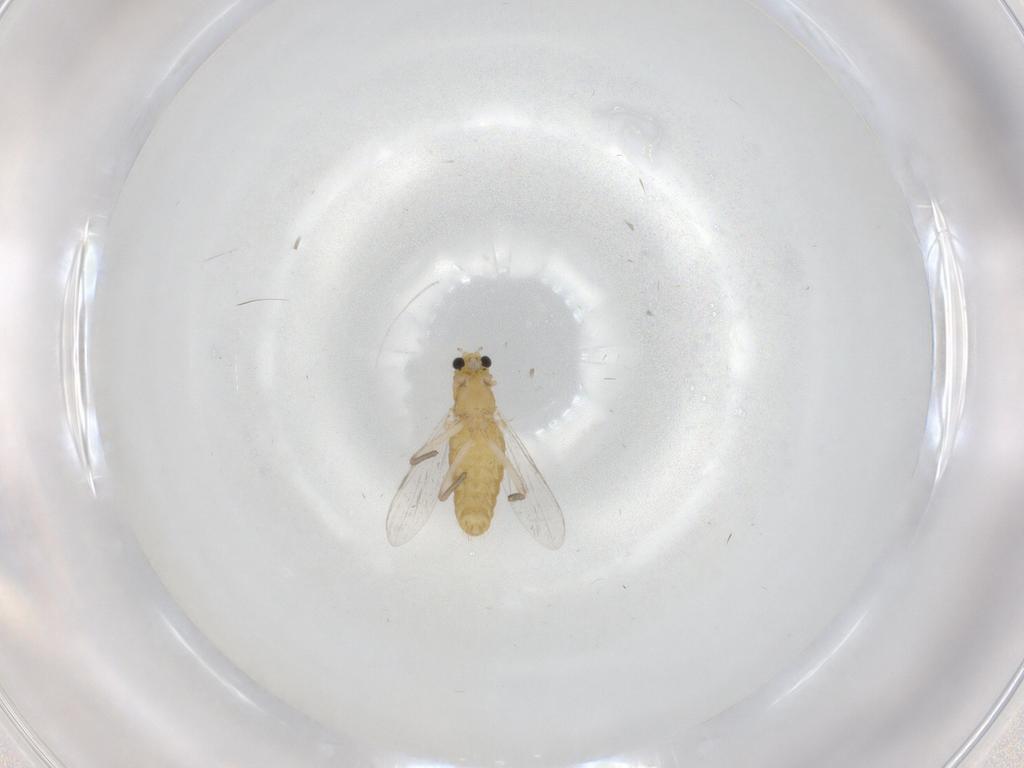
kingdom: Animalia
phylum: Arthropoda
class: Insecta
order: Diptera
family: Chironomidae
